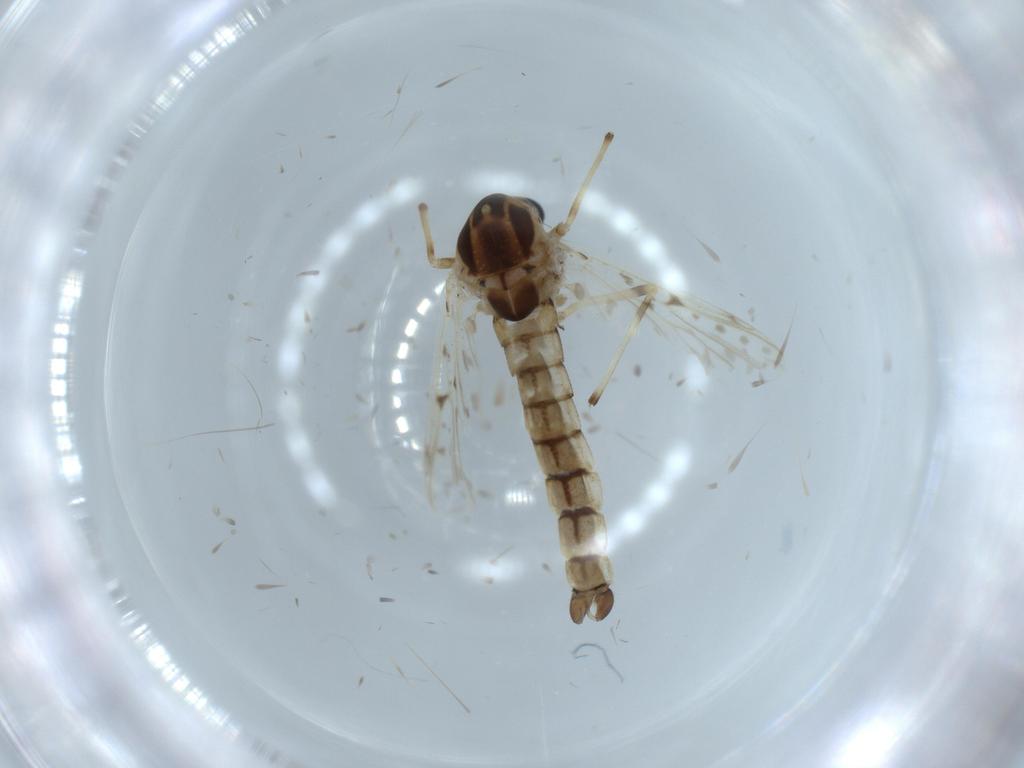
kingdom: Animalia
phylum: Arthropoda
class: Insecta
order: Diptera
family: Chironomidae
